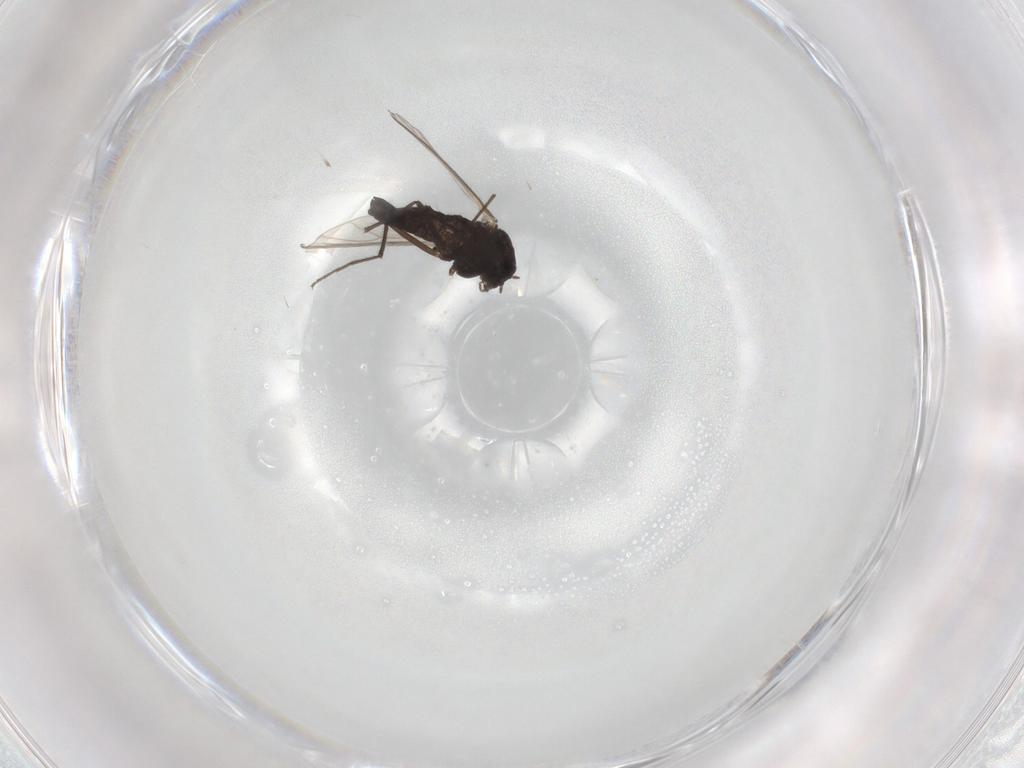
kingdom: Animalia
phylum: Arthropoda
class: Insecta
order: Diptera
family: Chironomidae
